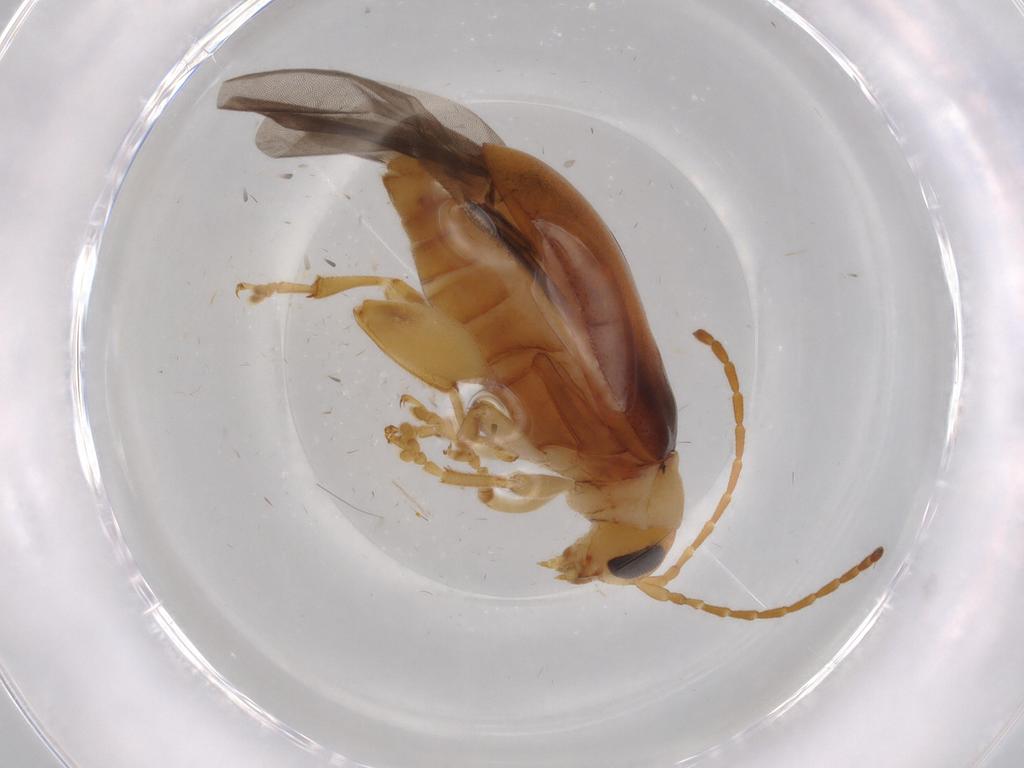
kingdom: Animalia
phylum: Arthropoda
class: Insecta
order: Coleoptera
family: Chrysomelidae
